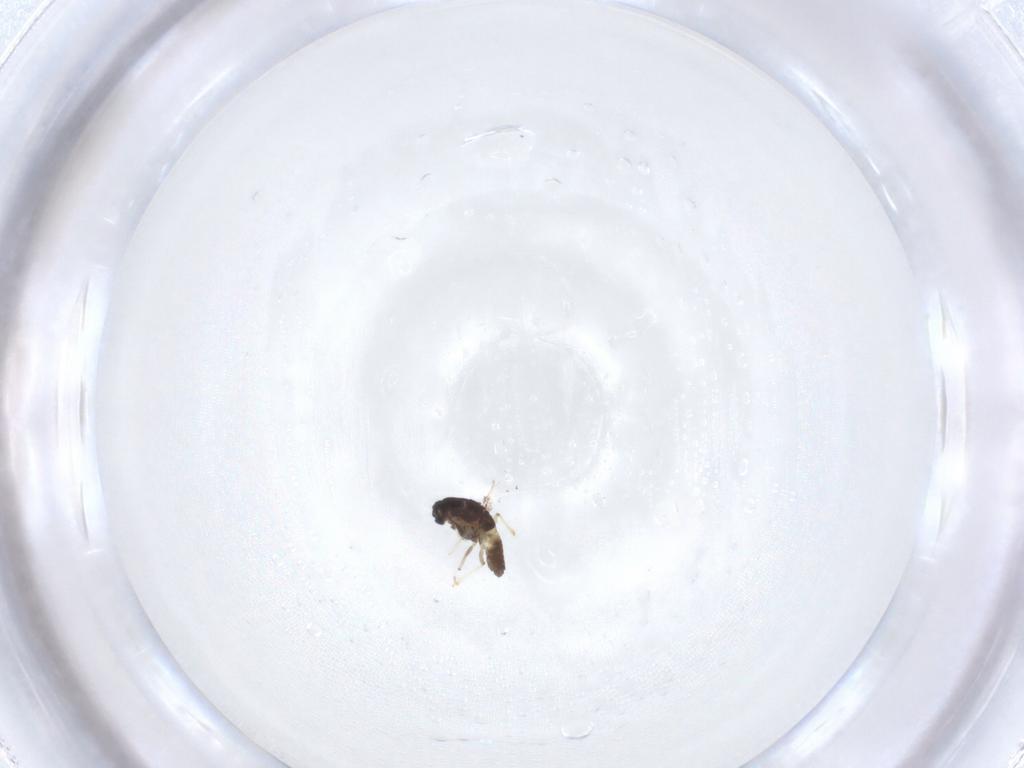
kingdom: Animalia
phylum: Arthropoda
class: Insecta
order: Diptera
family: Chironomidae
